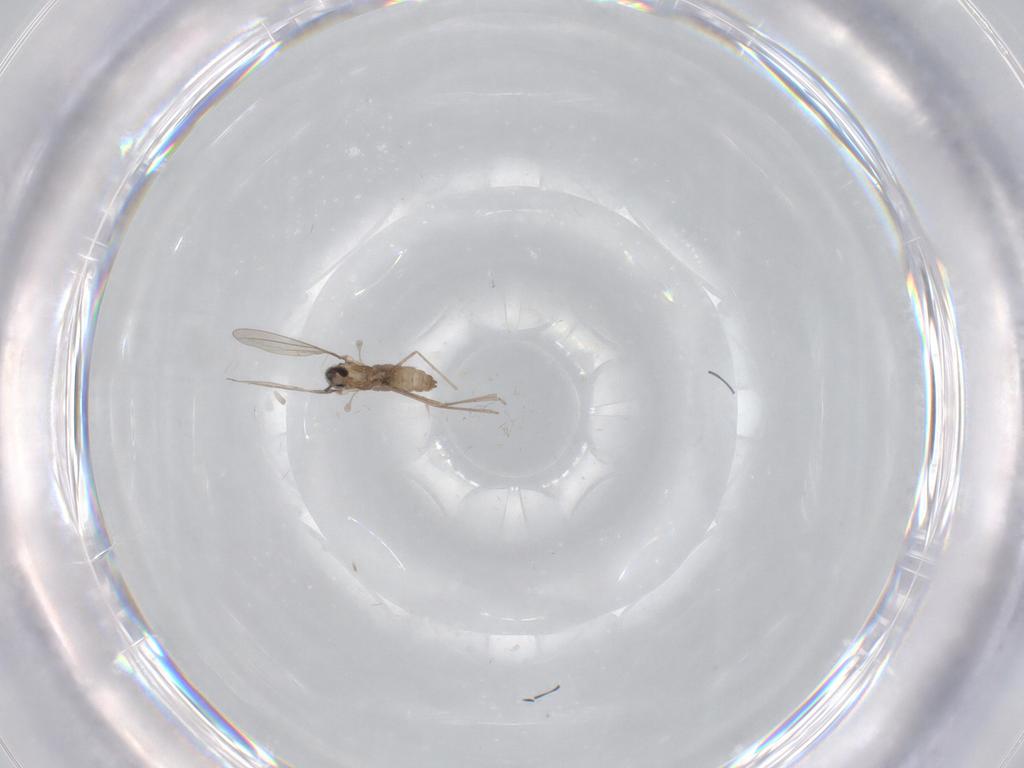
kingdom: Animalia
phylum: Arthropoda
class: Insecta
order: Diptera
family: Cecidomyiidae
